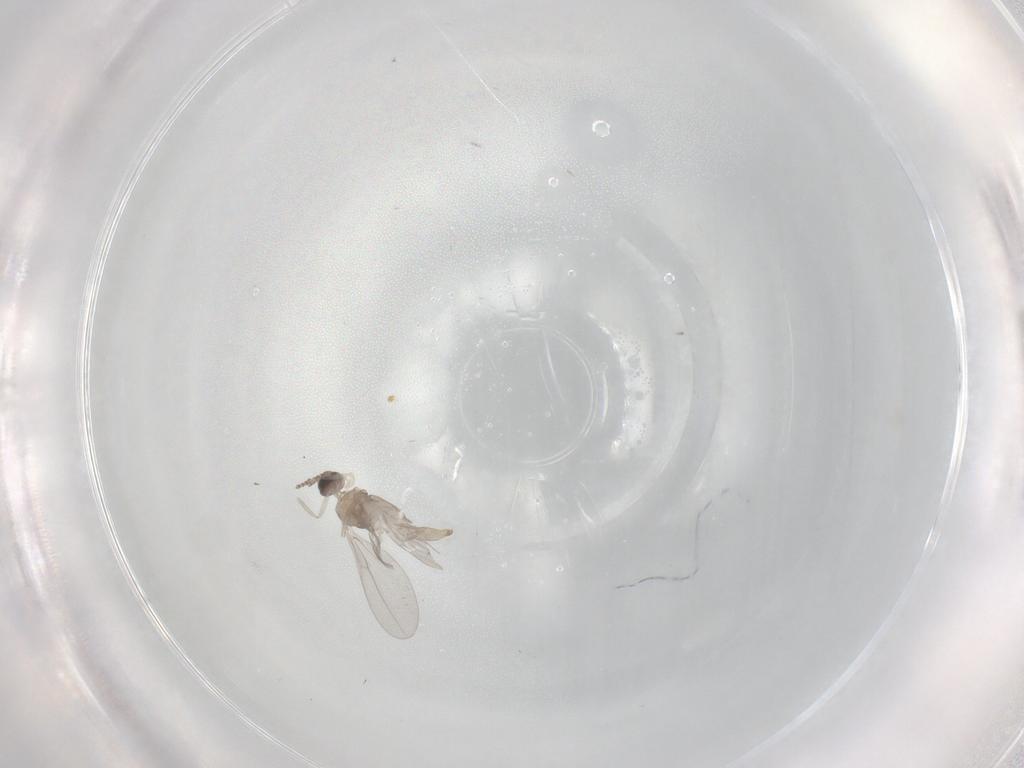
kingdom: Animalia
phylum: Arthropoda
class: Insecta
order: Diptera
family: Cecidomyiidae
